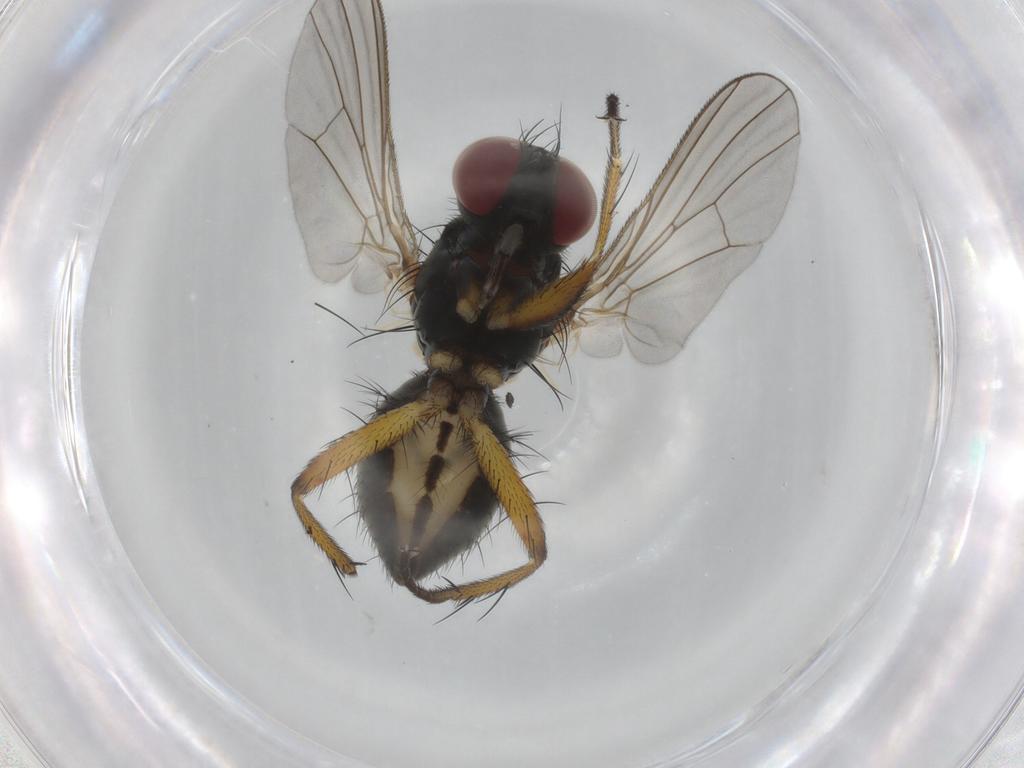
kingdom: Animalia
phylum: Arthropoda
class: Insecta
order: Diptera
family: Muscidae
